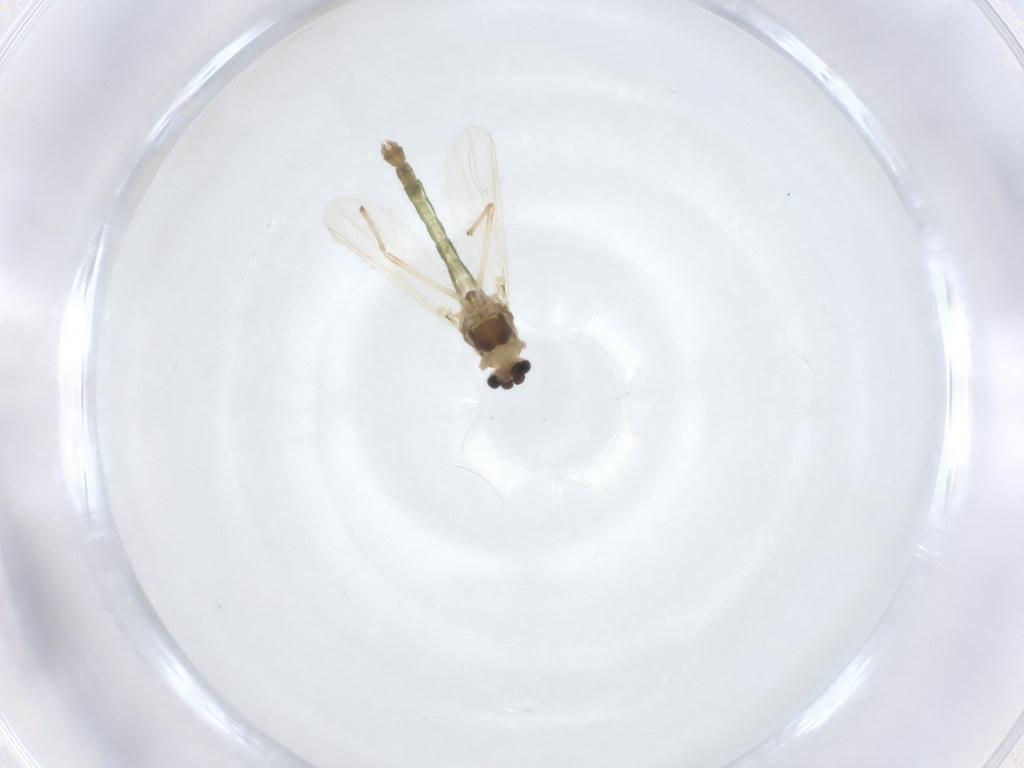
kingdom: Animalia
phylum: Arthropoda
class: Insecta
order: Diptera
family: Chironomidae
